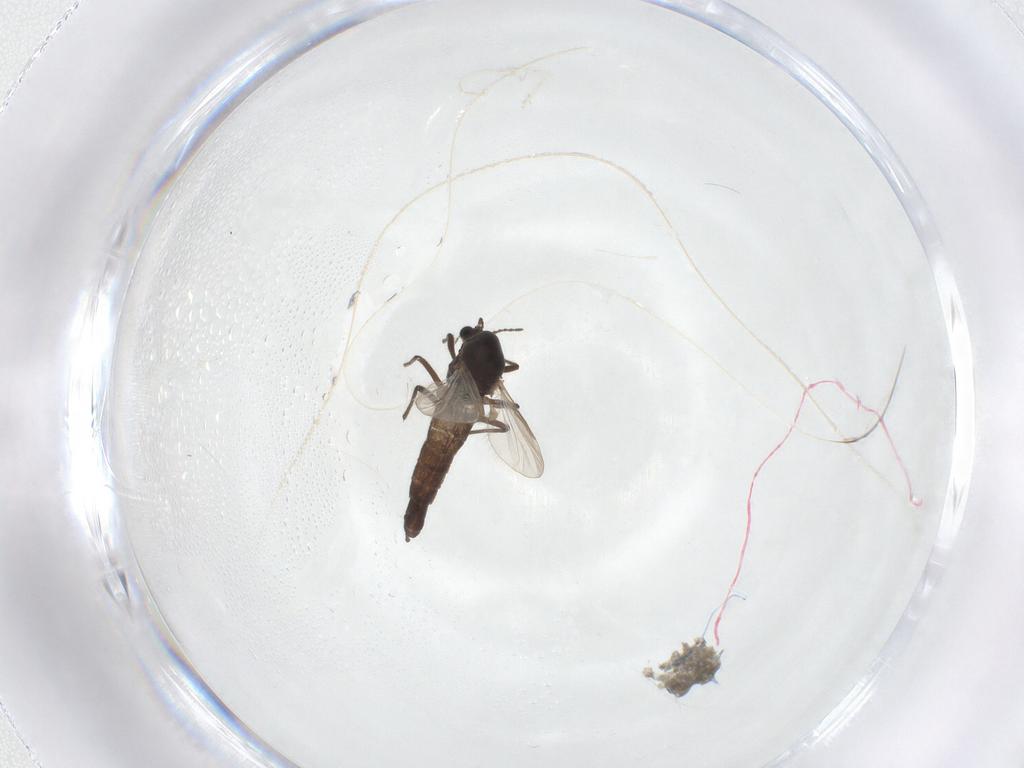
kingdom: Animalia
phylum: Arthropoda
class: Insecta
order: Diptera
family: Chironomidae
